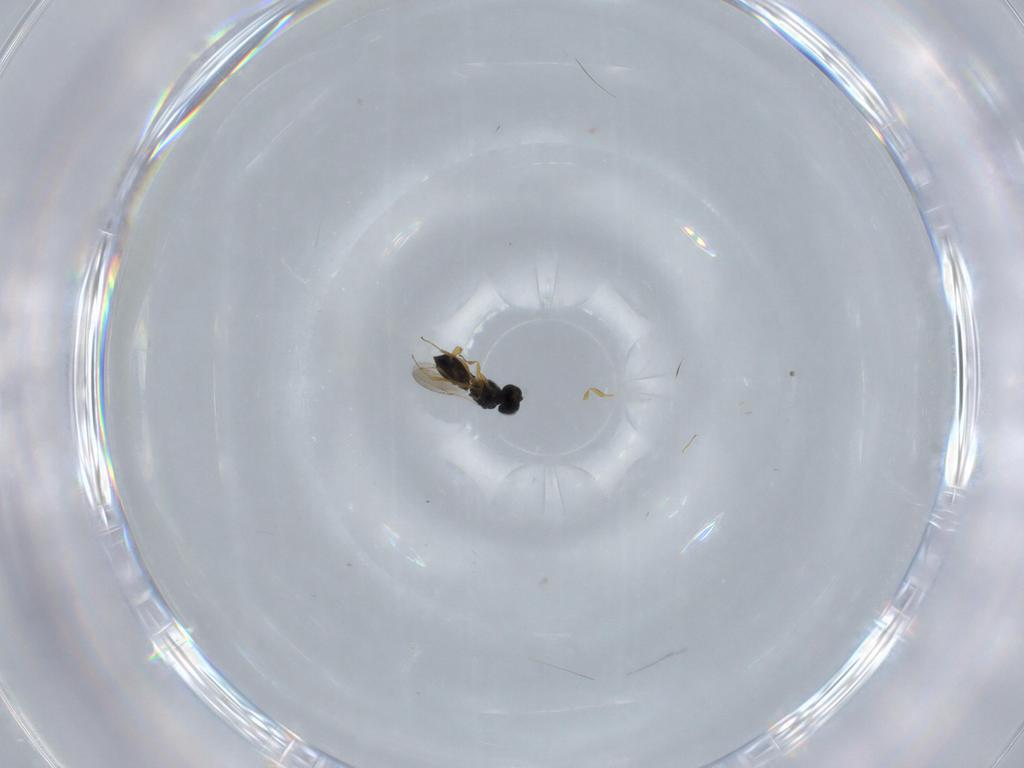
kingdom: Animalia
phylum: Arthropoda
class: Insecta
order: Hymenoptera
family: Scelionidae
